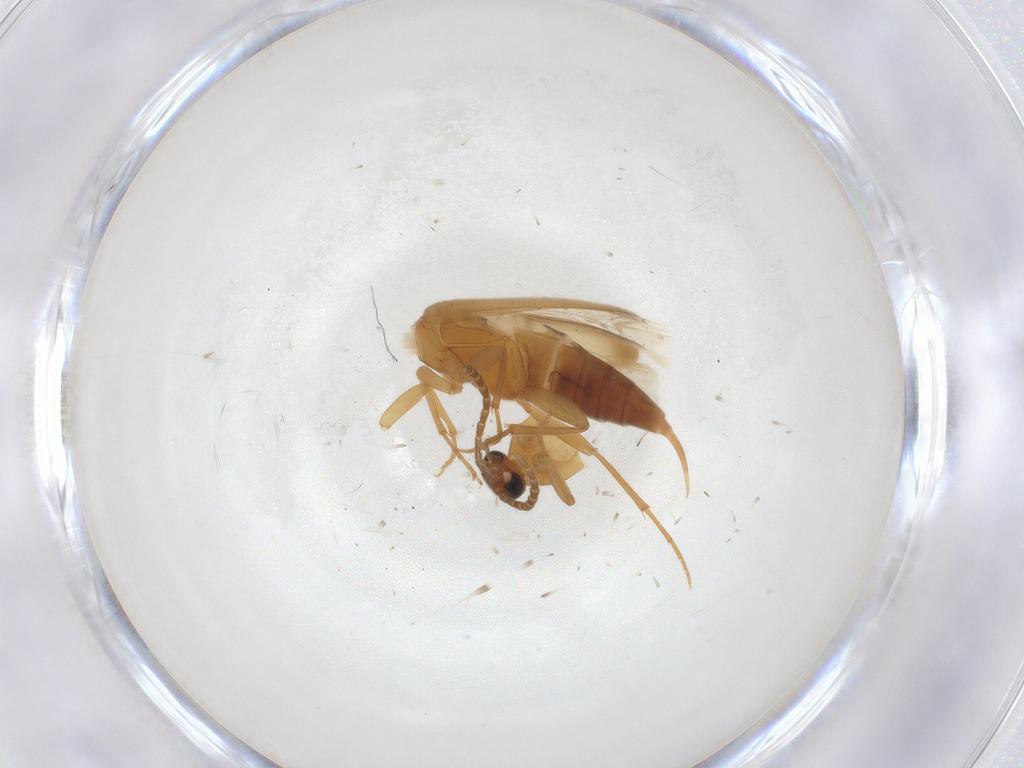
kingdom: Animalia
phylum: Arthropoda
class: Insecta
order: Coleoptera
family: Scraptiidae
